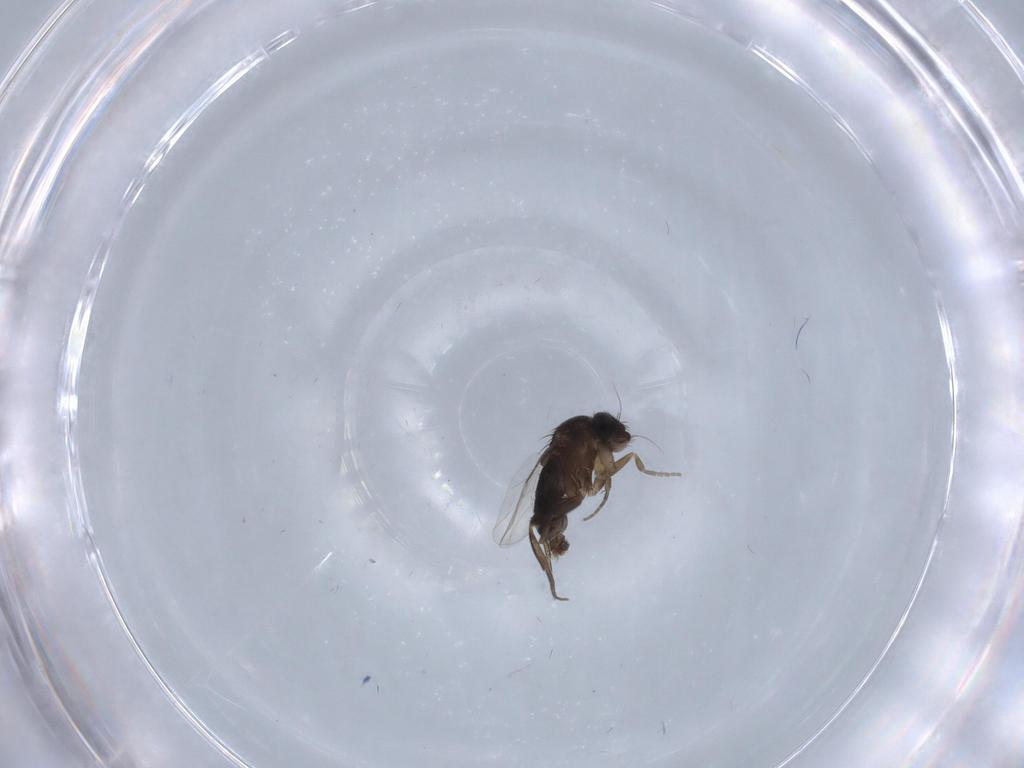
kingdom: Animalia
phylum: Arthropoda
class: Insecta
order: Diptera
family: Phoridae
